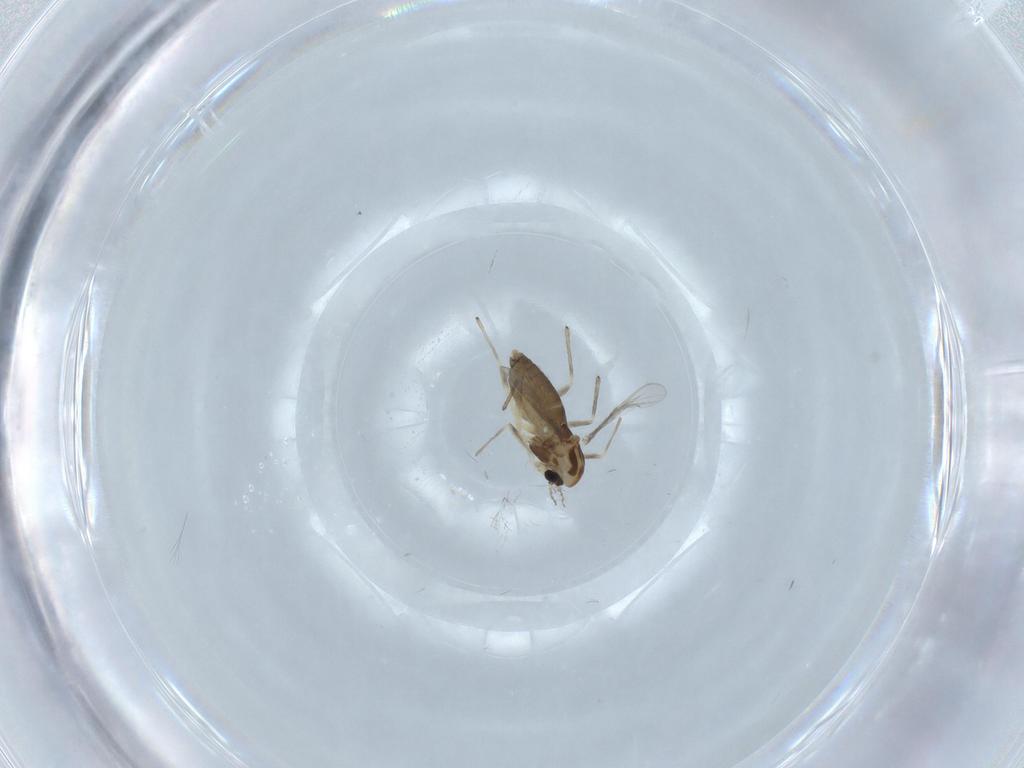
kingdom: Animalia
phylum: Arthropoda
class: Insecta
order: Diptera
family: Chironomidae
